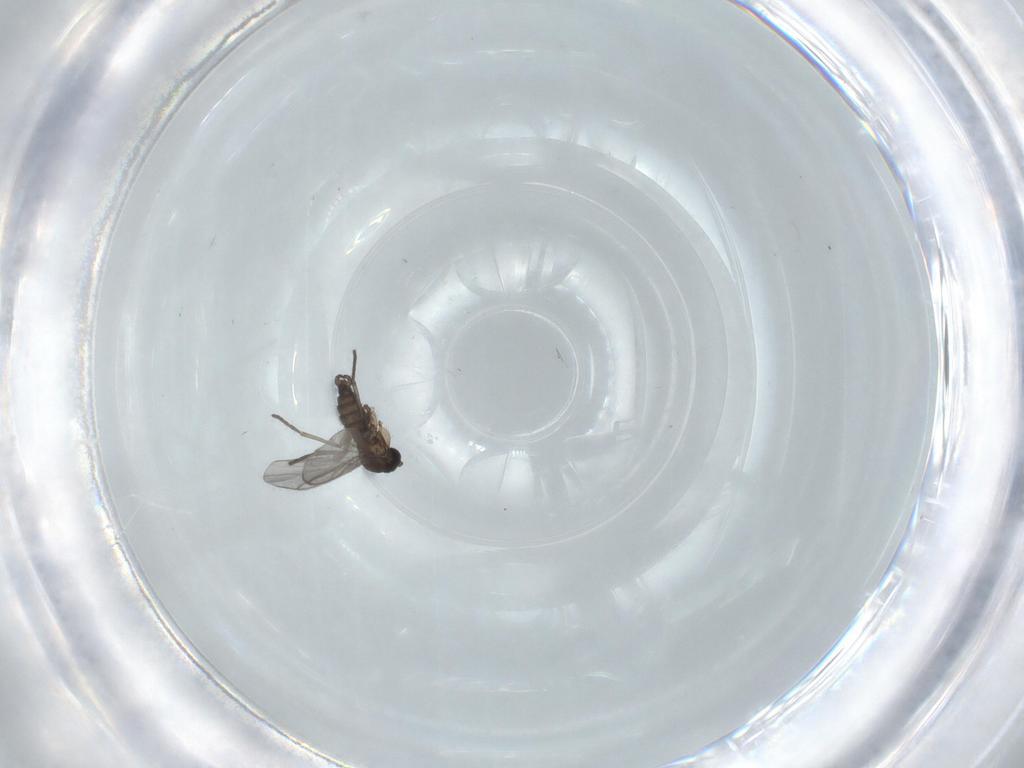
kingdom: Animalia
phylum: Arthropoda
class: Insecta
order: Diptera
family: Cecidomyiidae
